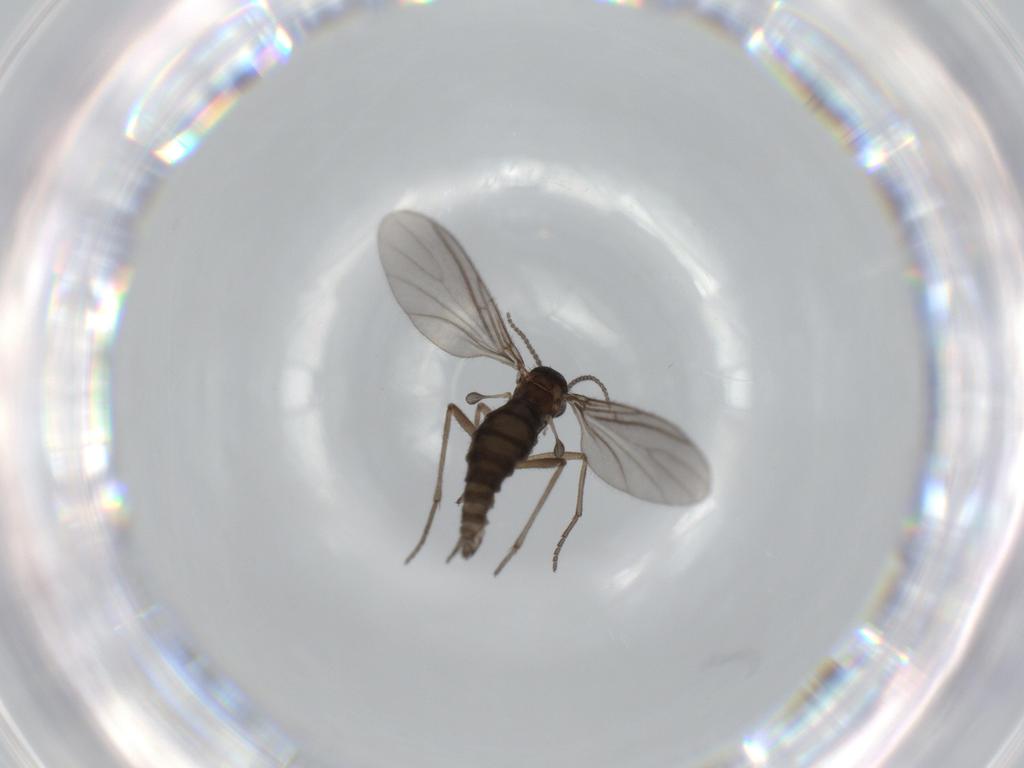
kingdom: Animalia
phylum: Arthropoda
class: Insecta
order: Diptera
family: Sciaridae
